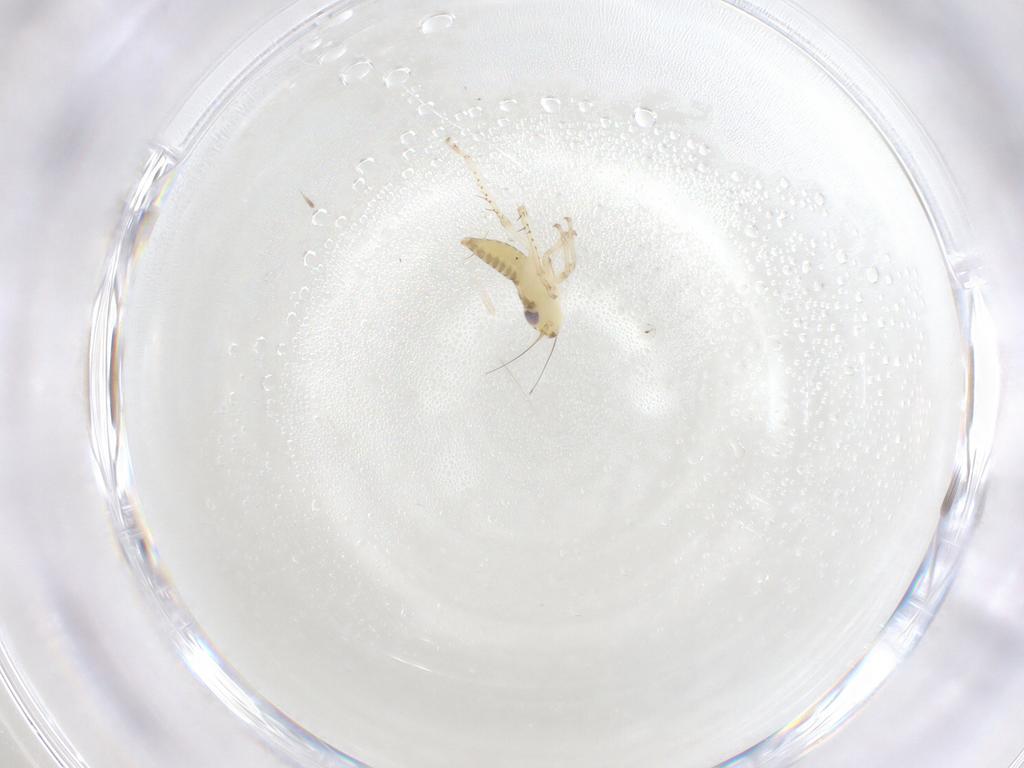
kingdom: Animalia
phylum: Arthropoda
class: Insecta
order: Hemiptera
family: Cicadellidae
